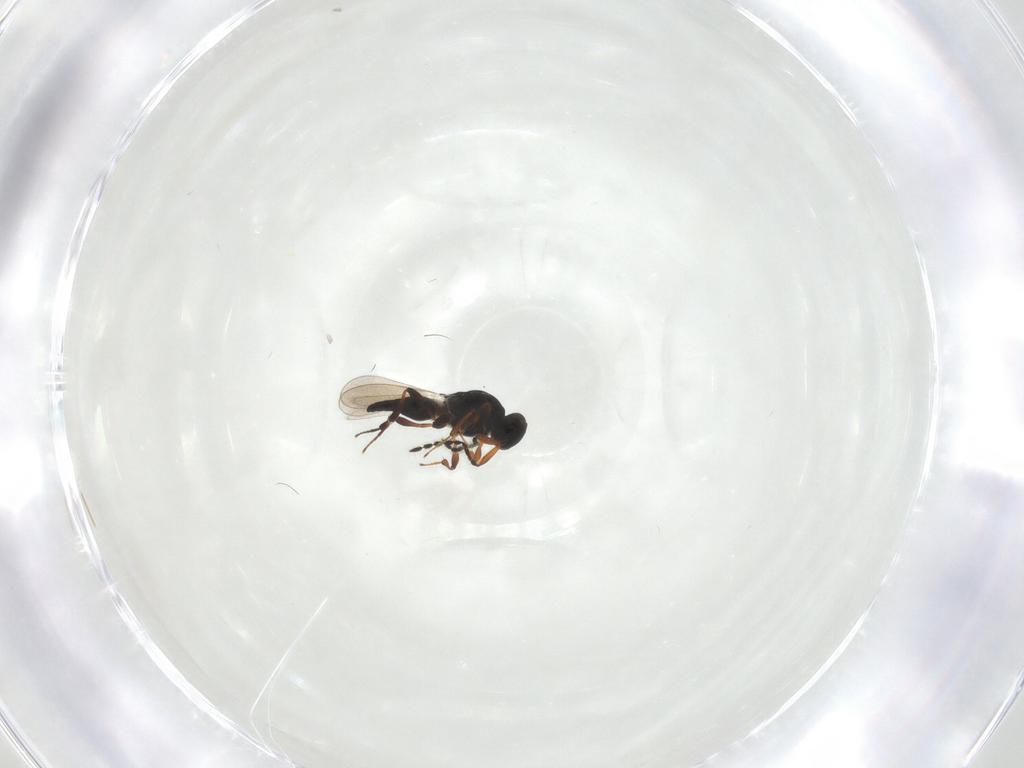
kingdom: Animalia
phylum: Arthropoda
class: Insecta
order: Hymenoptera
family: Platygastridae
